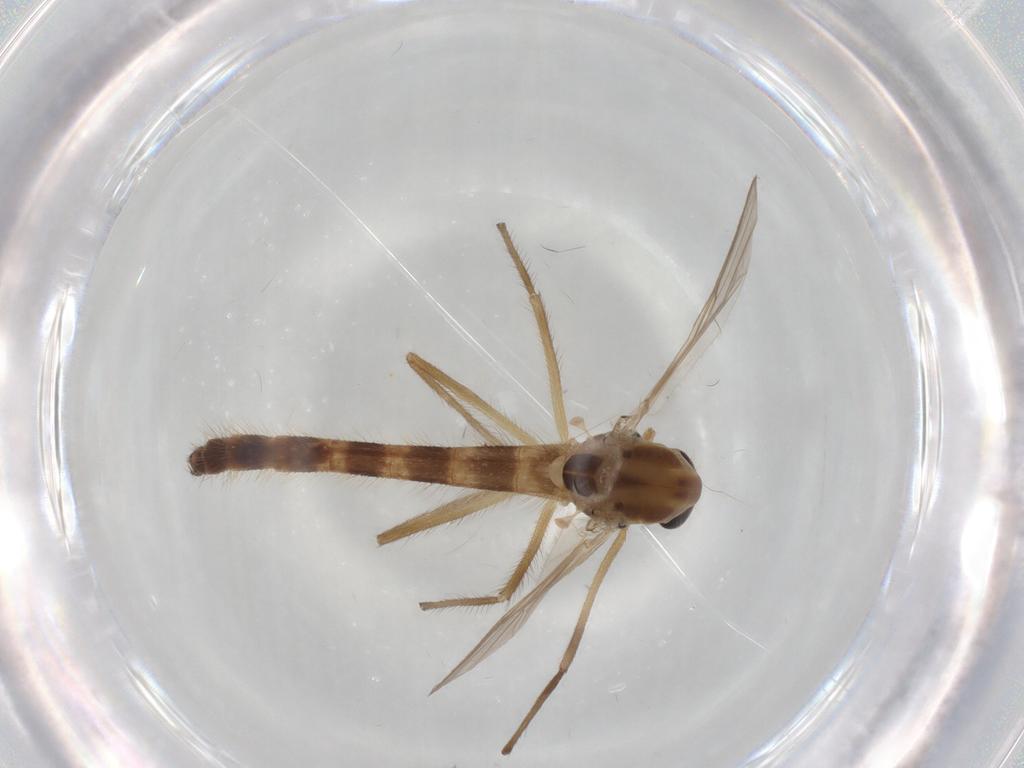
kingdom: Animalia
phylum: Arthropoda
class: Insecta
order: Diptera
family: Chironomidae
